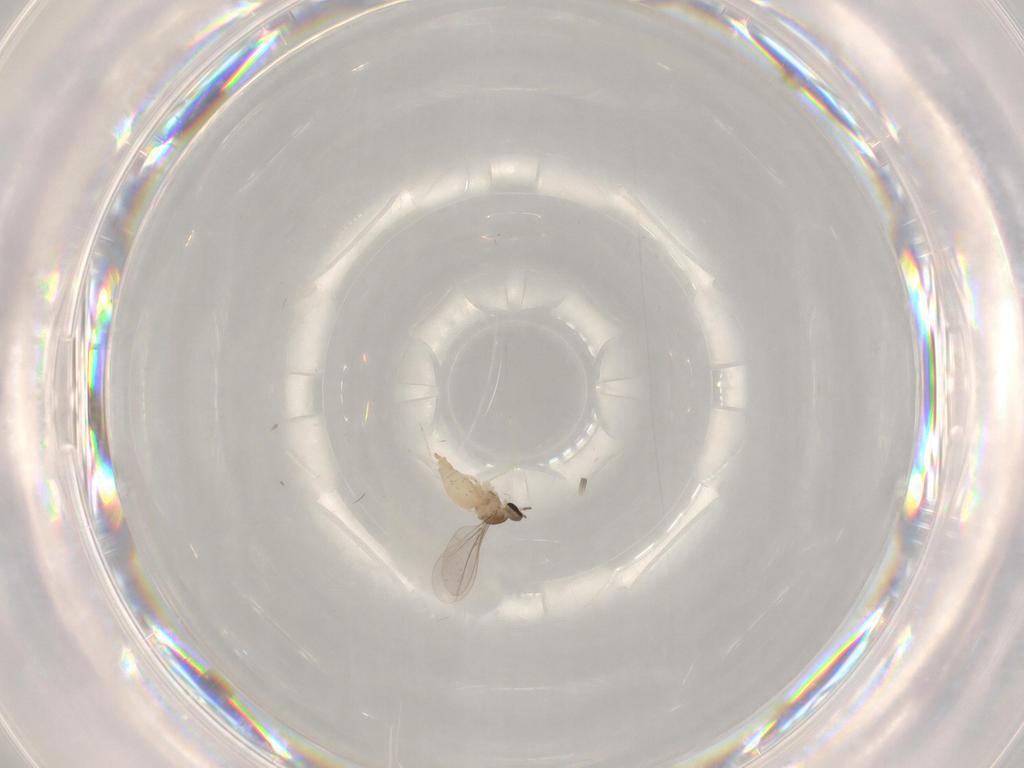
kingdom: Animalia
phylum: Arthropoda
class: Insecta
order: Diptera
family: Cecidomyiidae
